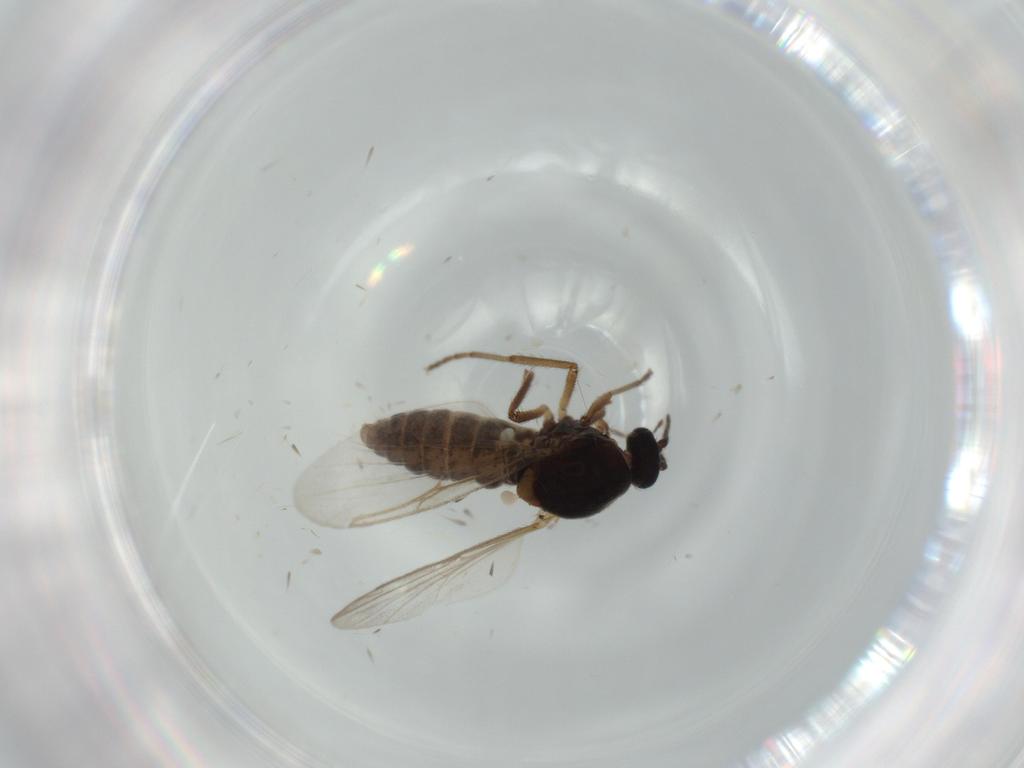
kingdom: Animalia
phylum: Arthropoda
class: Insecta
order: Diptera
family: Ceratopogonidae
